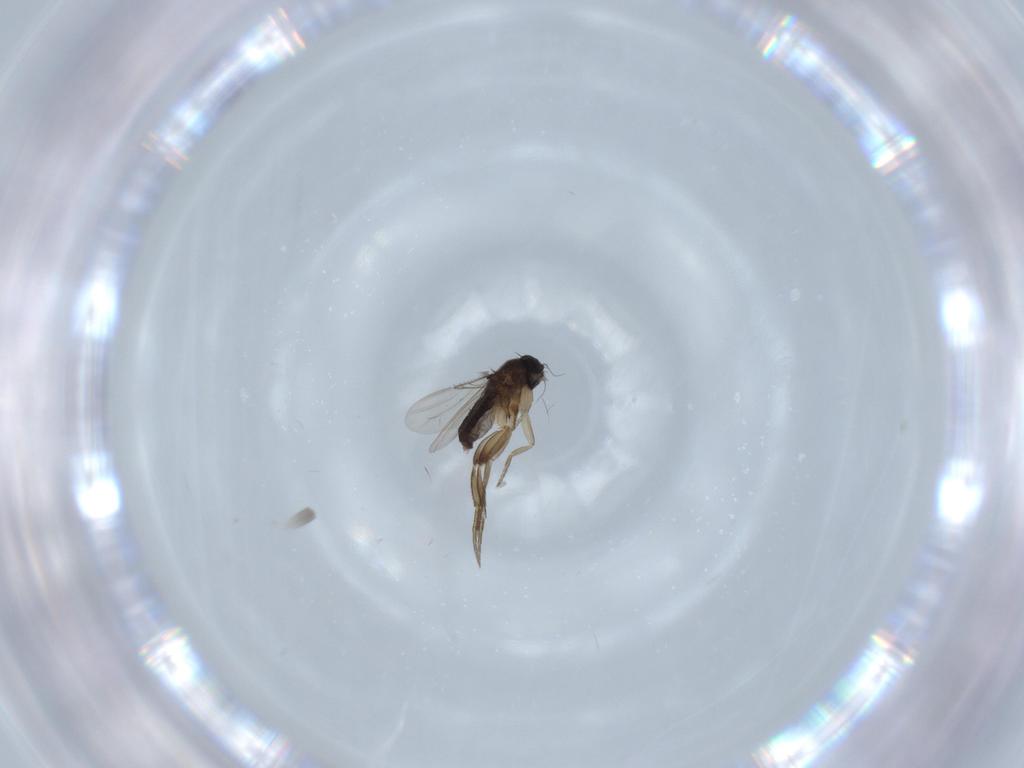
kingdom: Animalia
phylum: Arthropoda
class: Insecta
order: Diptera
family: Phoridae
